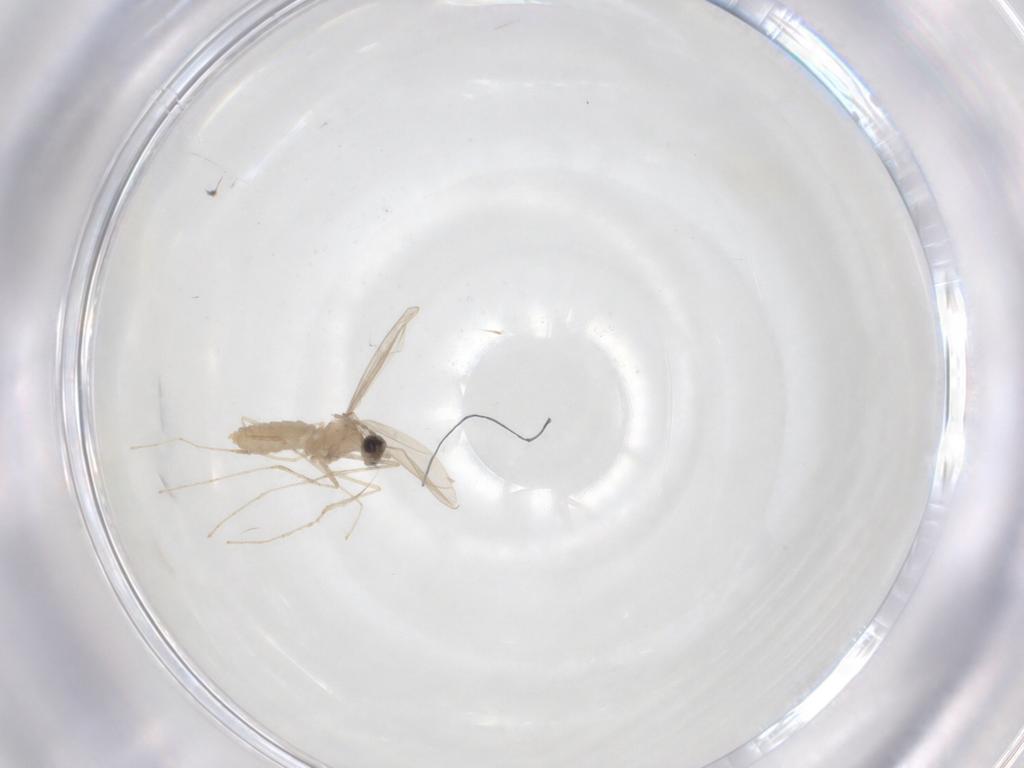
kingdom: Animalia
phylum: Arthropoda
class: Insecta
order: Diptera
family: Cecidomyiidae
